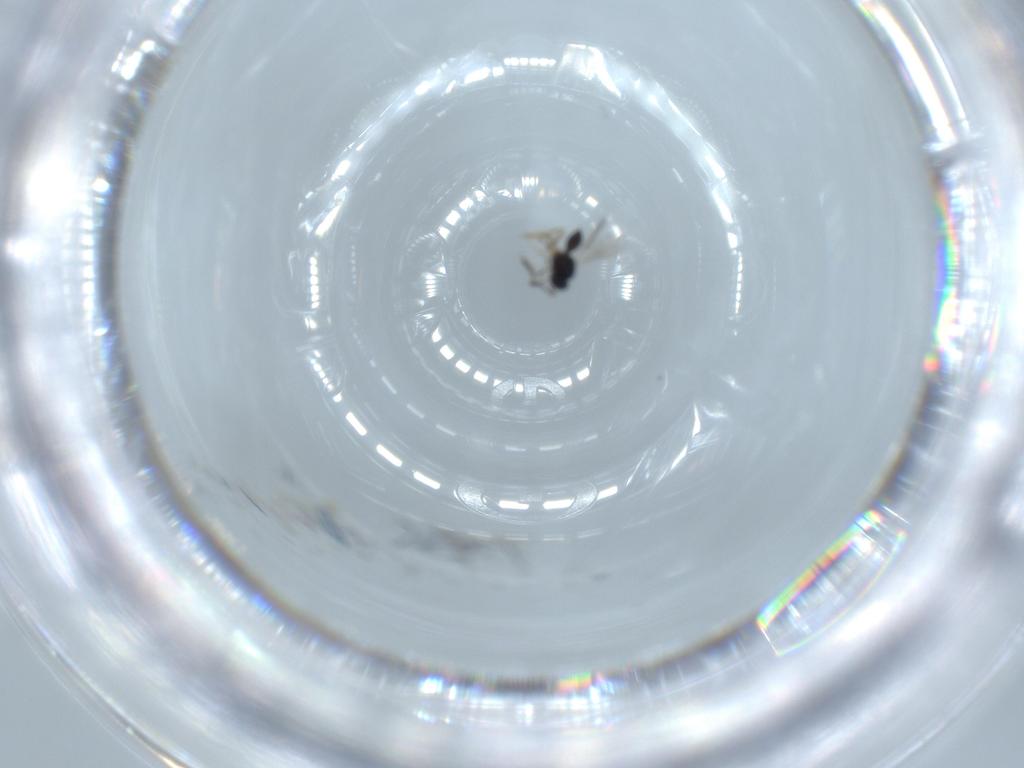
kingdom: Animalia
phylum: Arthropoda
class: Insecta
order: Hymenoptera
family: Scelionidae
